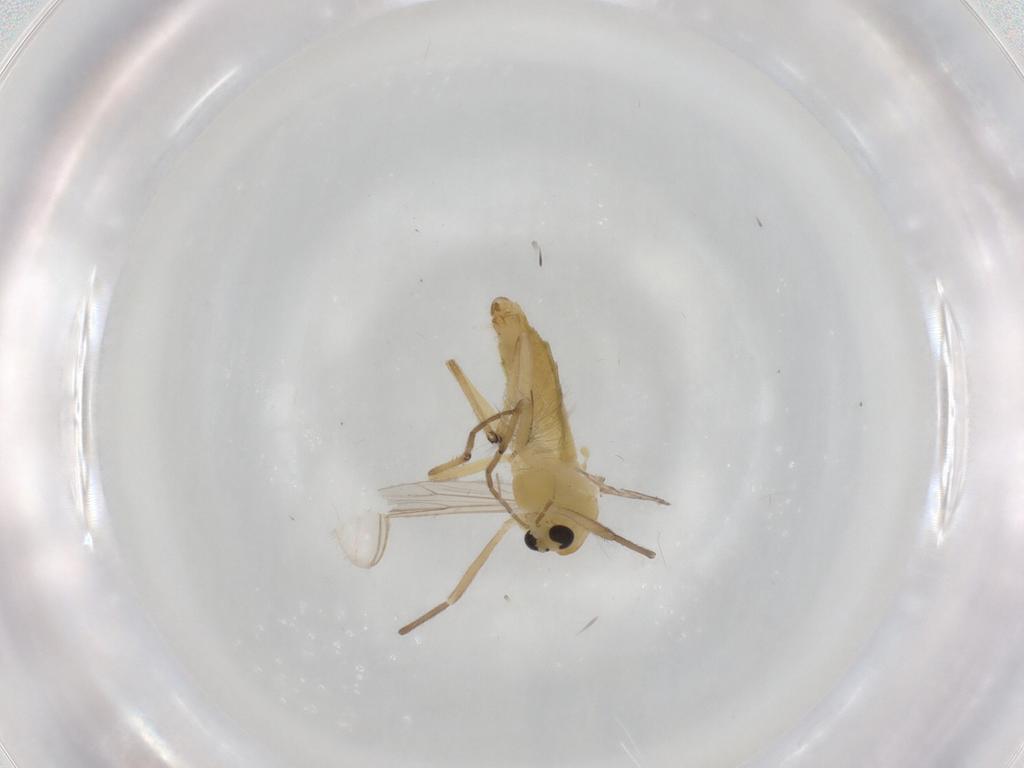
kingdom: Animalia
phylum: Arthropoda
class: Insecta
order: Diptera
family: Chironomidae
